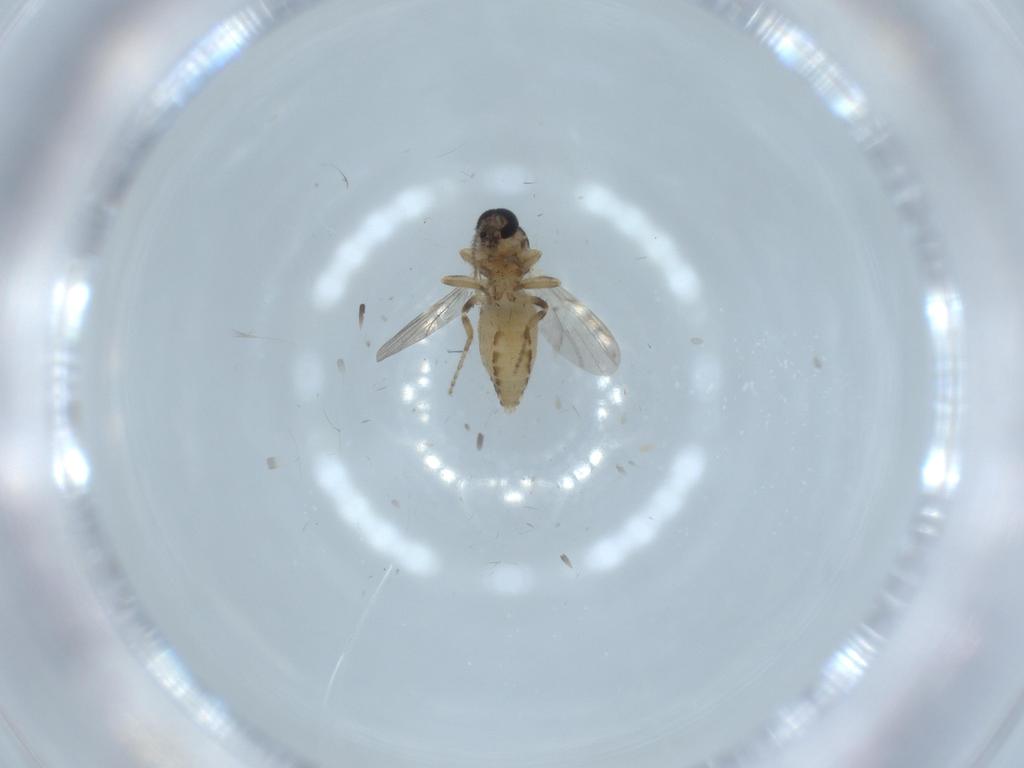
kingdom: Animalia
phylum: Arthropoda
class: Insecta
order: Diptera
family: Ceratopogonidae
